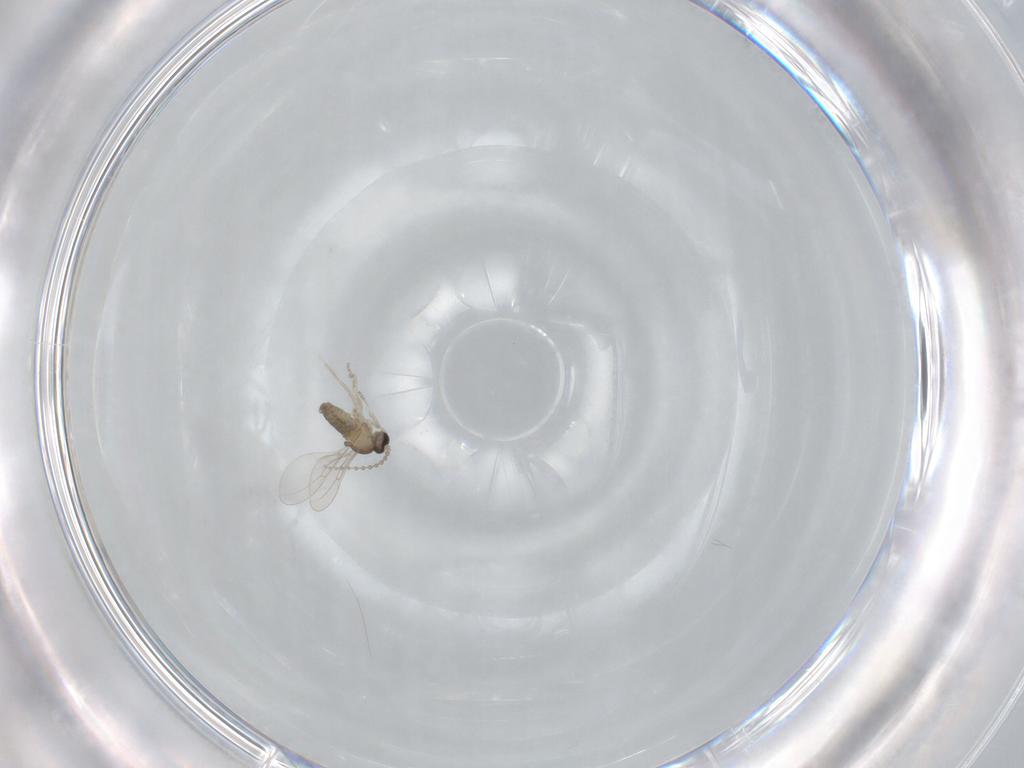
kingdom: Animalia
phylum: Arthropoda
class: Insecta
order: Diptera
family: Cecidomyiidae
